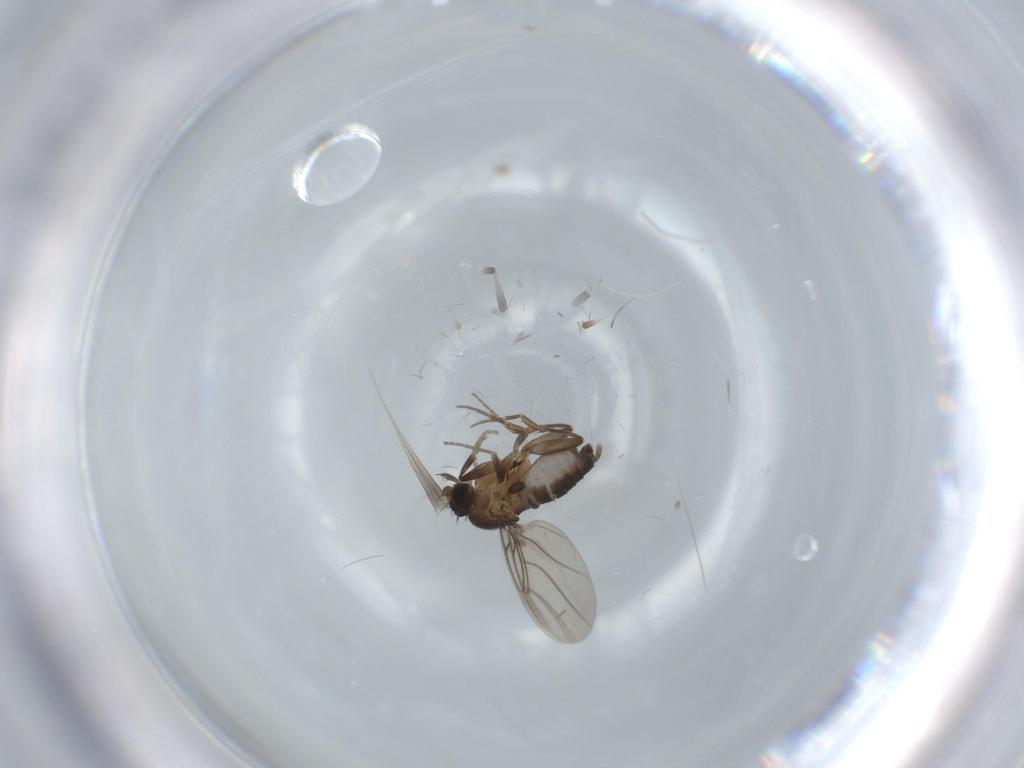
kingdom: Animalia
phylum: Arthropoda
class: Insecta
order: Diptera
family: Phoridae
